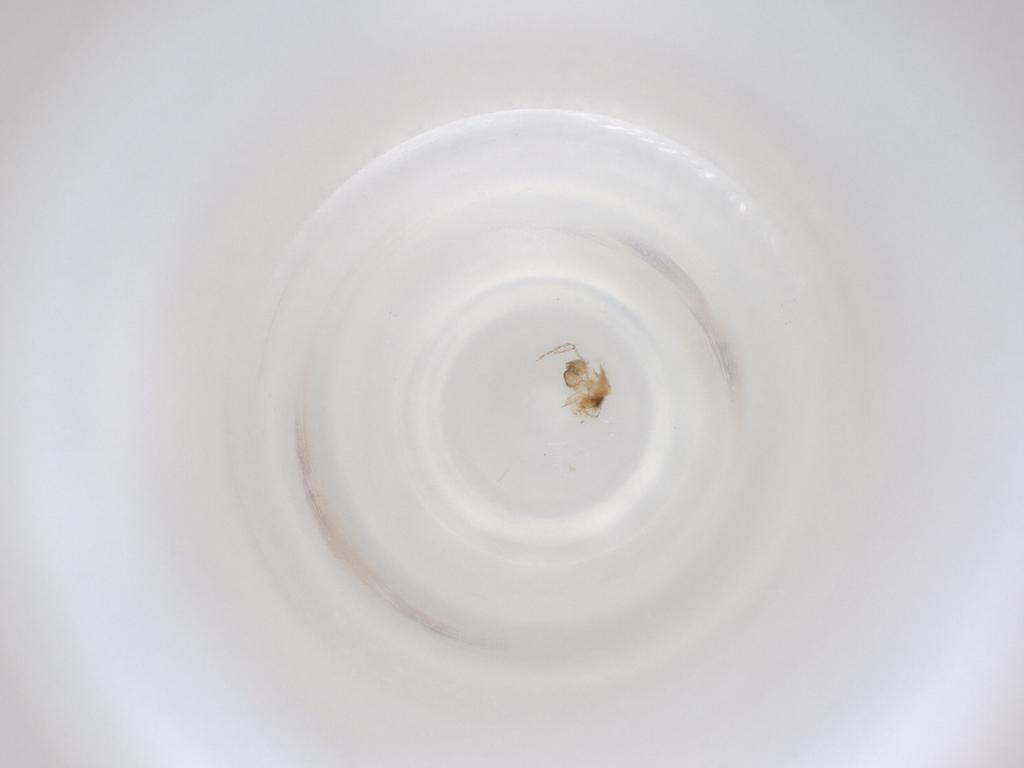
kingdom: Animalia
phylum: Arthropoda
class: Insecta
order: Diptera
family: Cecidomyiidae
